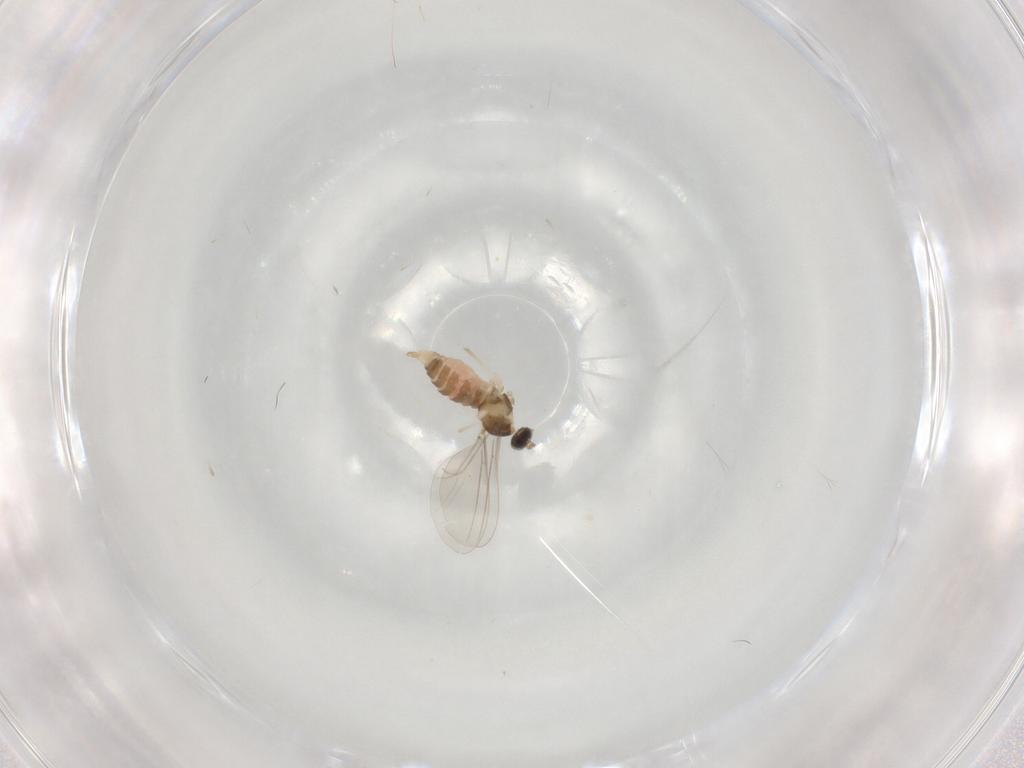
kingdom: Animalia
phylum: Arthropoda
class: Insecta
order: Diptera
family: Cecidomyiidae
